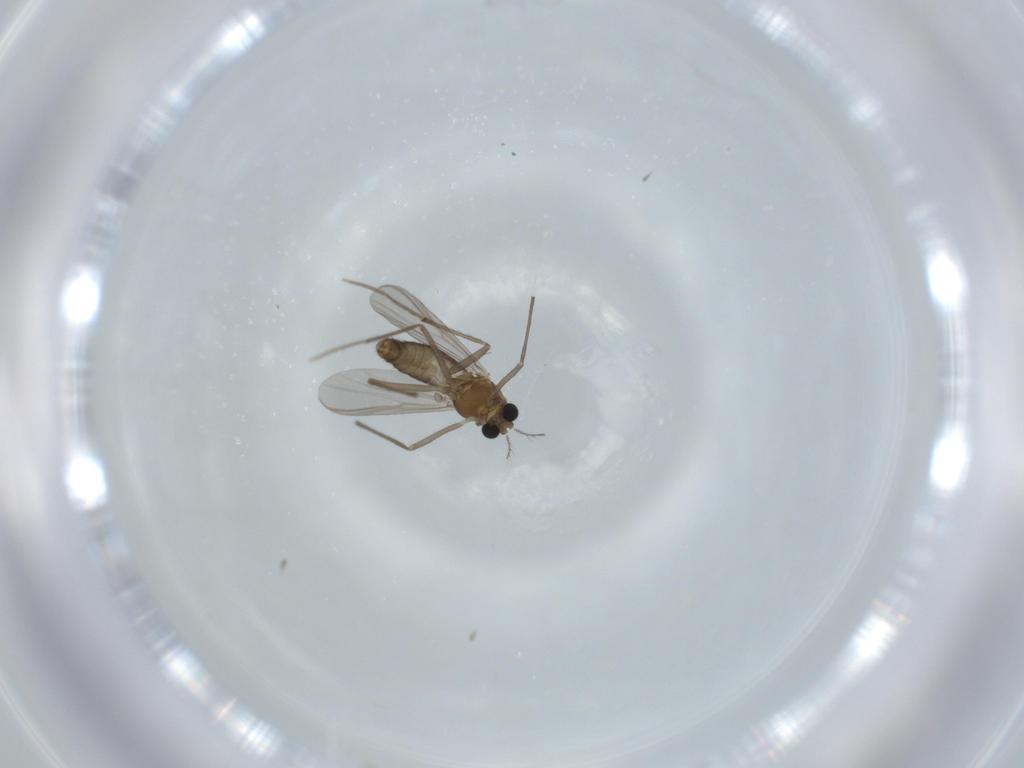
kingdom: Animalia
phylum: Arthropoda
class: Insecta
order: Diptera
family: Chironomidae
